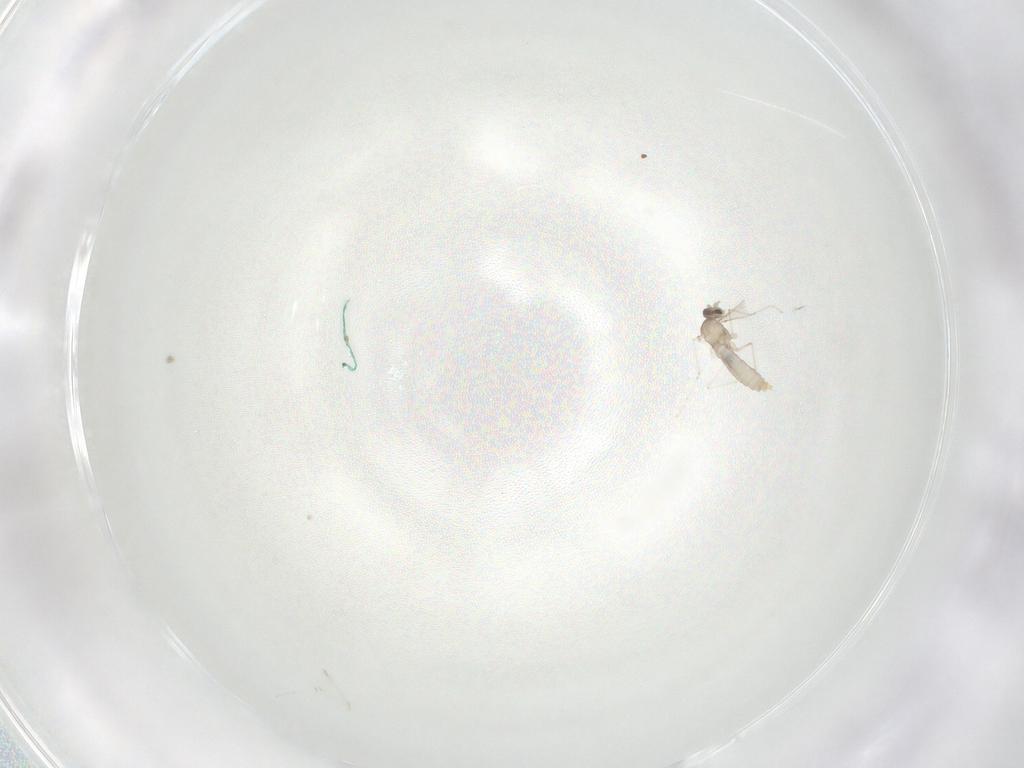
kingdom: Animalia
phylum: Arthropoda
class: Insecta
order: Diptera
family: Cecidomyiidae
